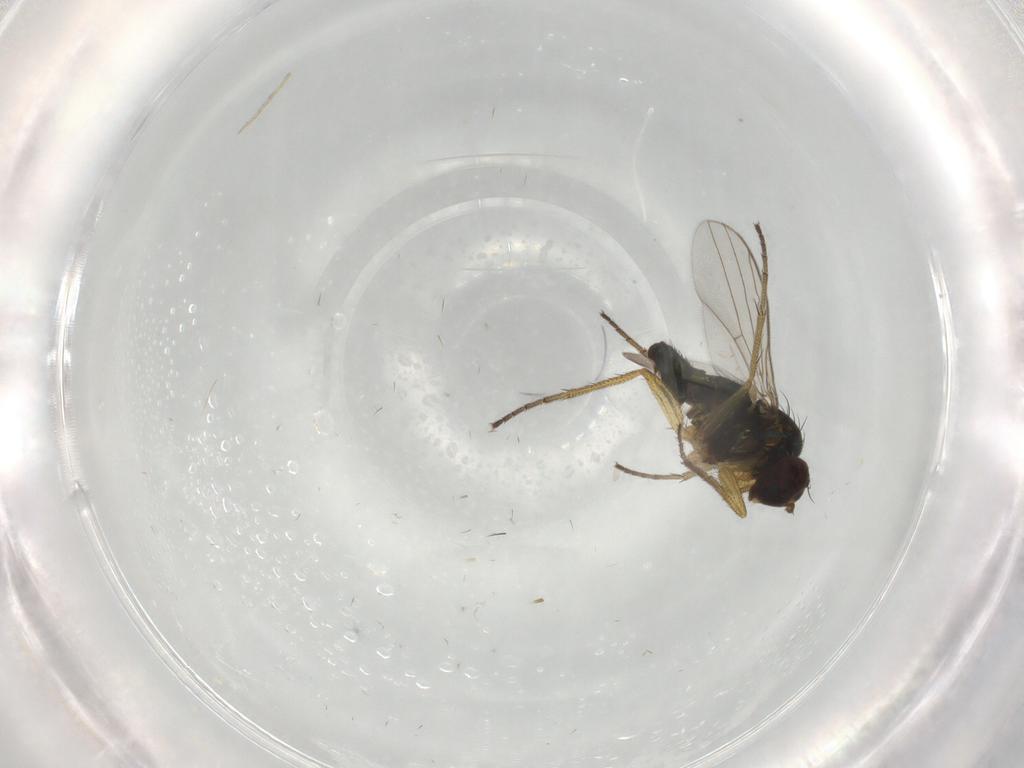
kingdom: Animalia
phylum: Arthropoda
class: Insecta
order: Diptera
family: Dolichopodidae
